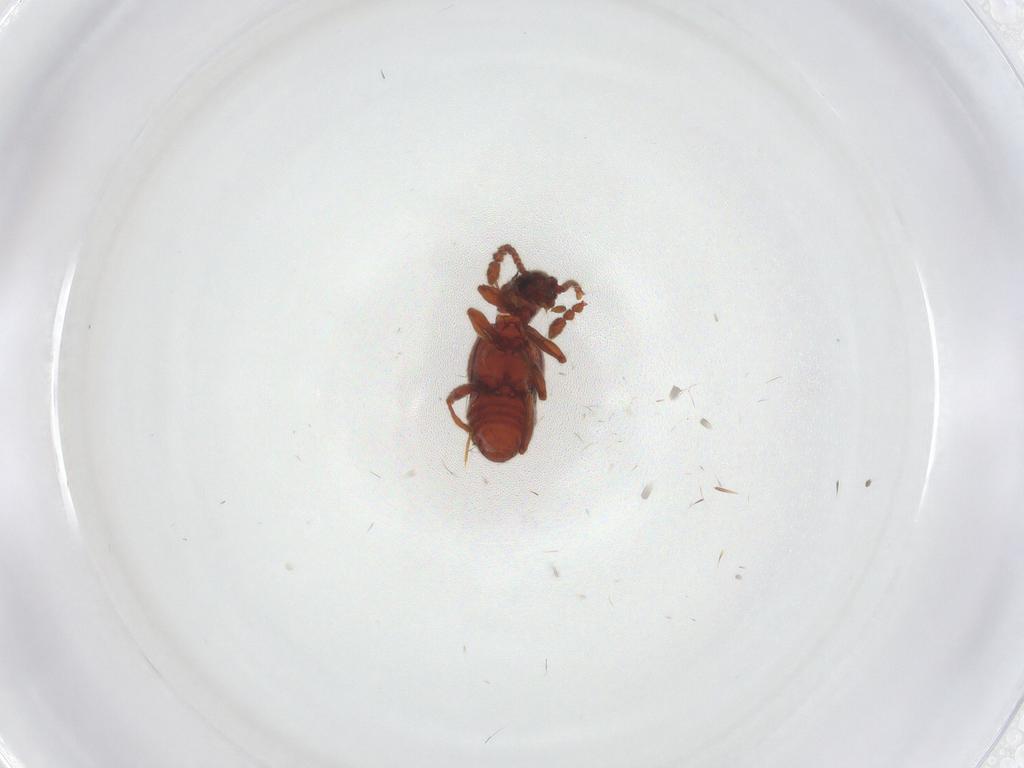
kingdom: Animalia
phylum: Arthropoda
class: Insecta
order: Coleoptera
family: Staphylinidae
